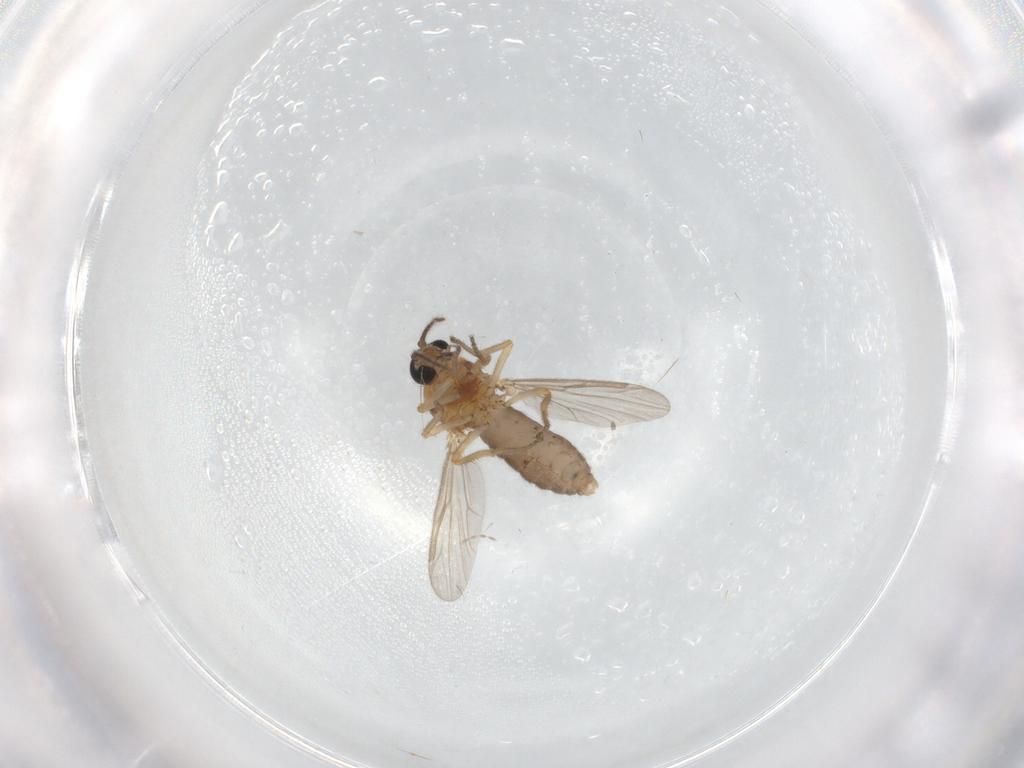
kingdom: Animalia
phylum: Arthropoda
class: Insecta
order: Diptera
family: Ceratopogonidae
